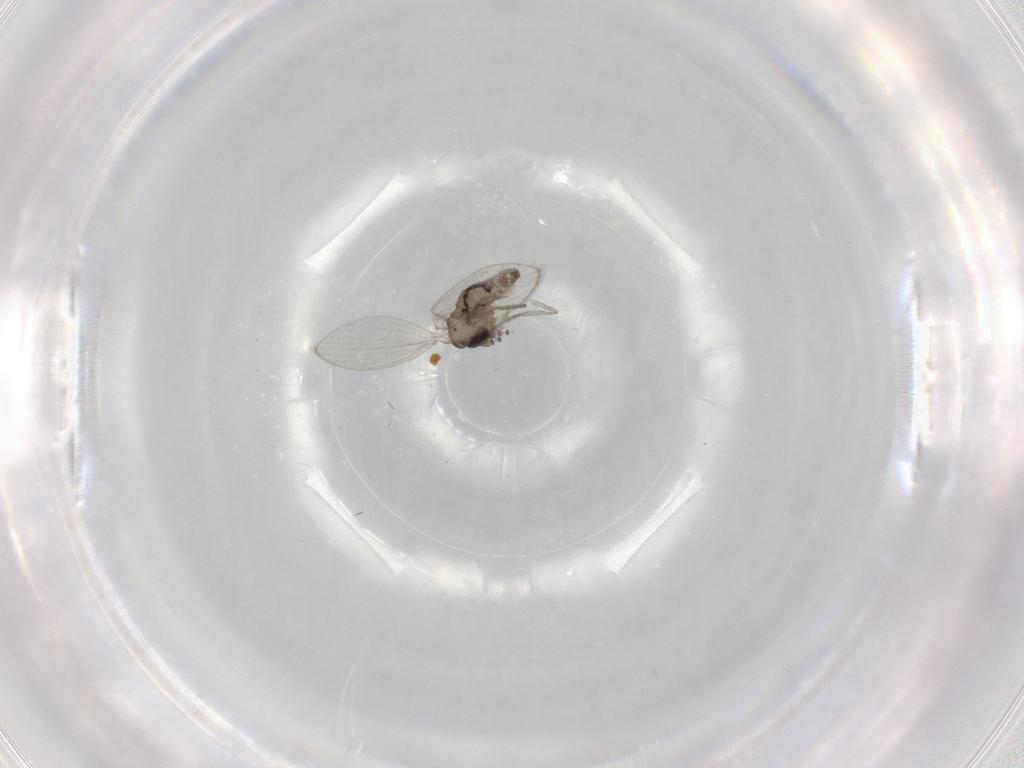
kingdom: Animalia
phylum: Arthropoda
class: Insecta
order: Diptera
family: Psychodidae
